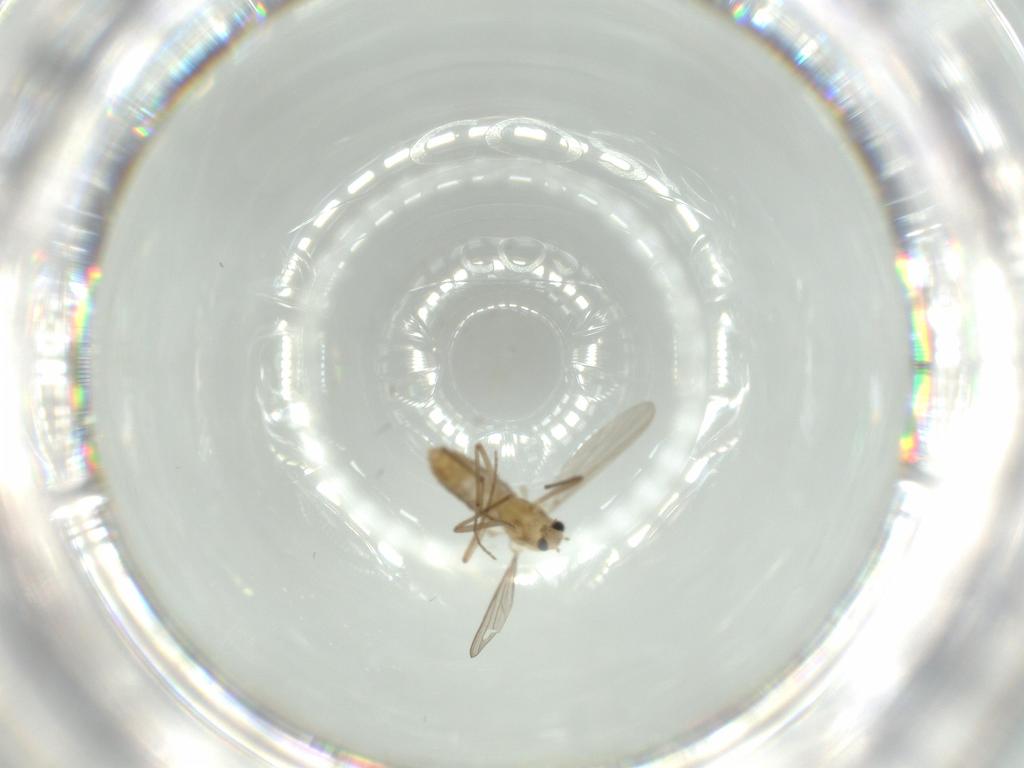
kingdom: Animalia
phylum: Arthropoda
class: Insecta
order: Diptera
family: Chironomidae
